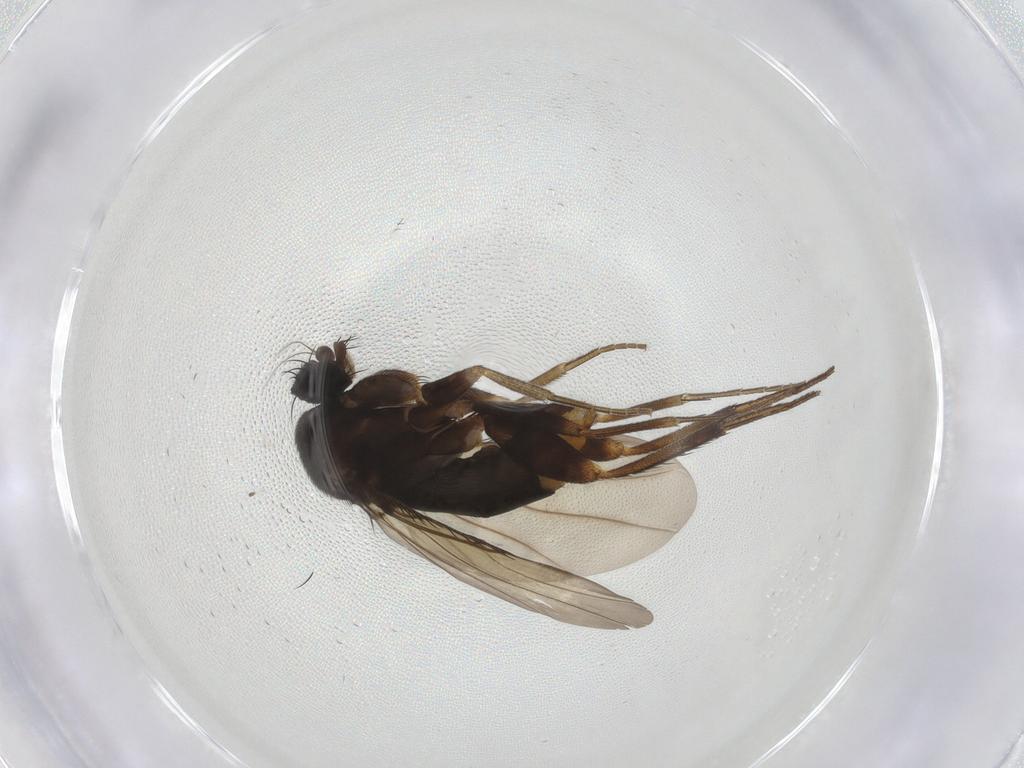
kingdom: Animalia
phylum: Arthropoda
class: Insecta
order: Diptera
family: Phoridae
